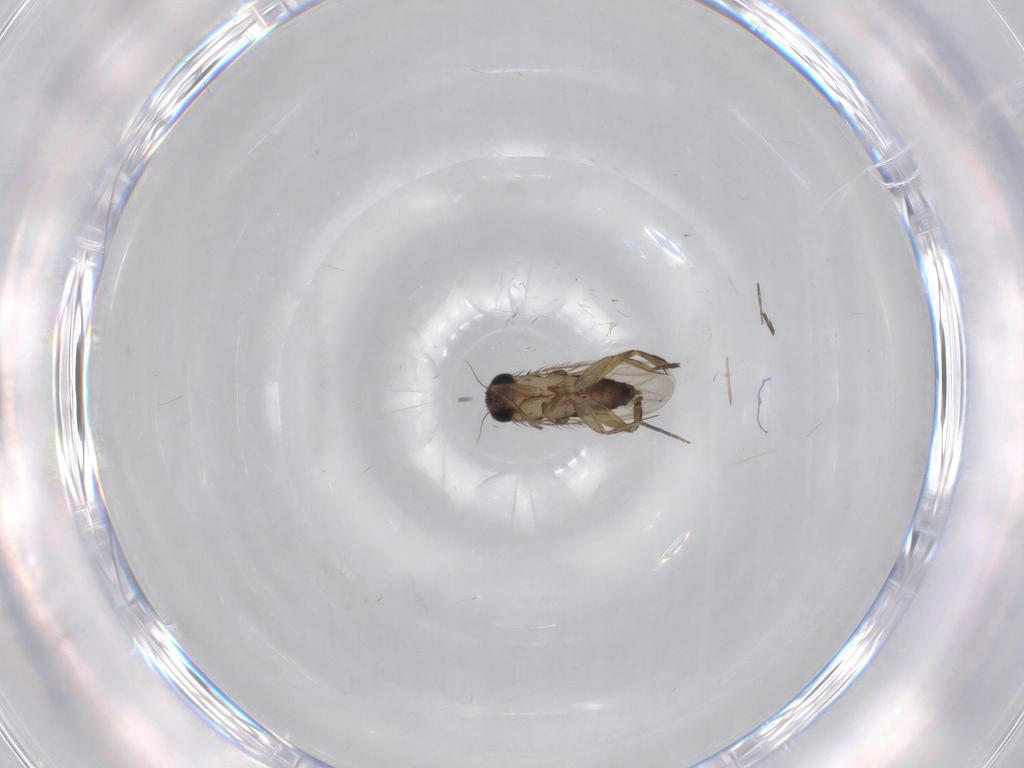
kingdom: Animalia
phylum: Arthropoda
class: Insecta
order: Diptera
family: Phoridae
